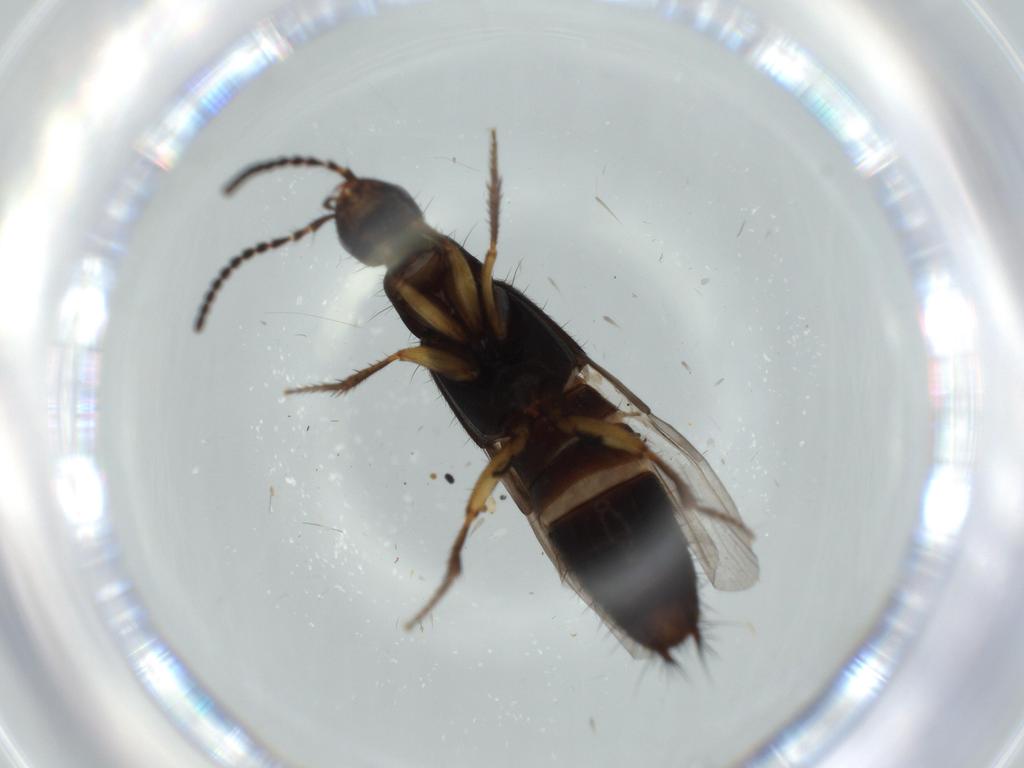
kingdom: Animalia
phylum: Arthropoda
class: Insecta
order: Coleoptera
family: Staphylinidae
